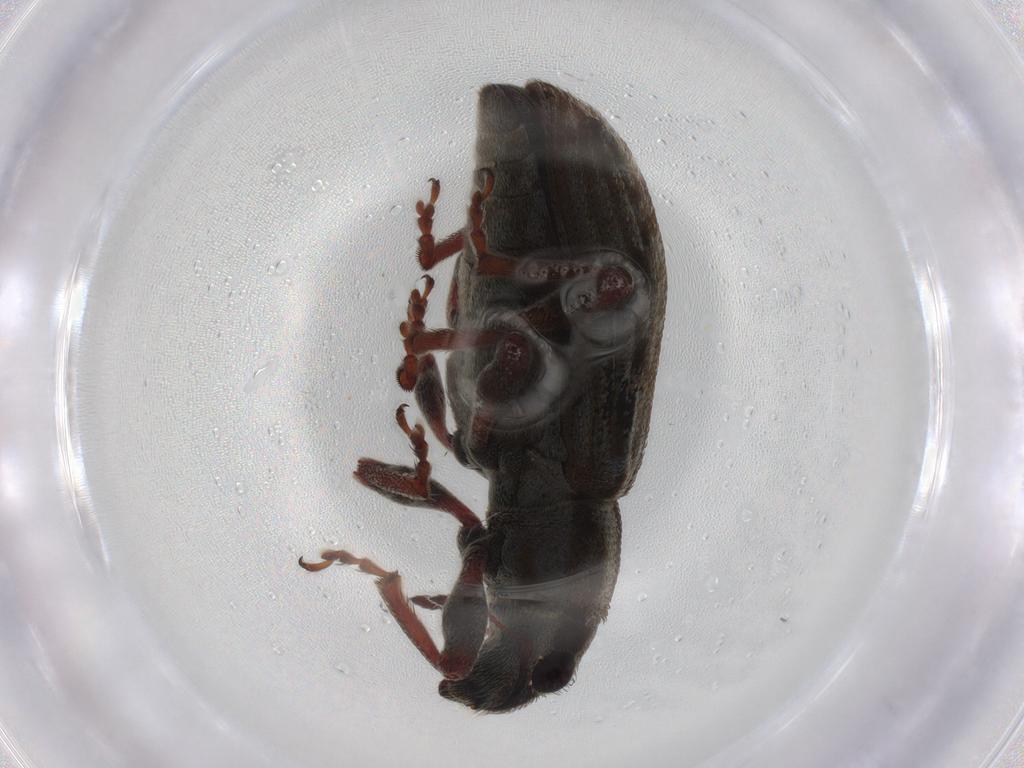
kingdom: Animalia
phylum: Arthropoda
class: Insecta
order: Coleoptera
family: Curculionidae
